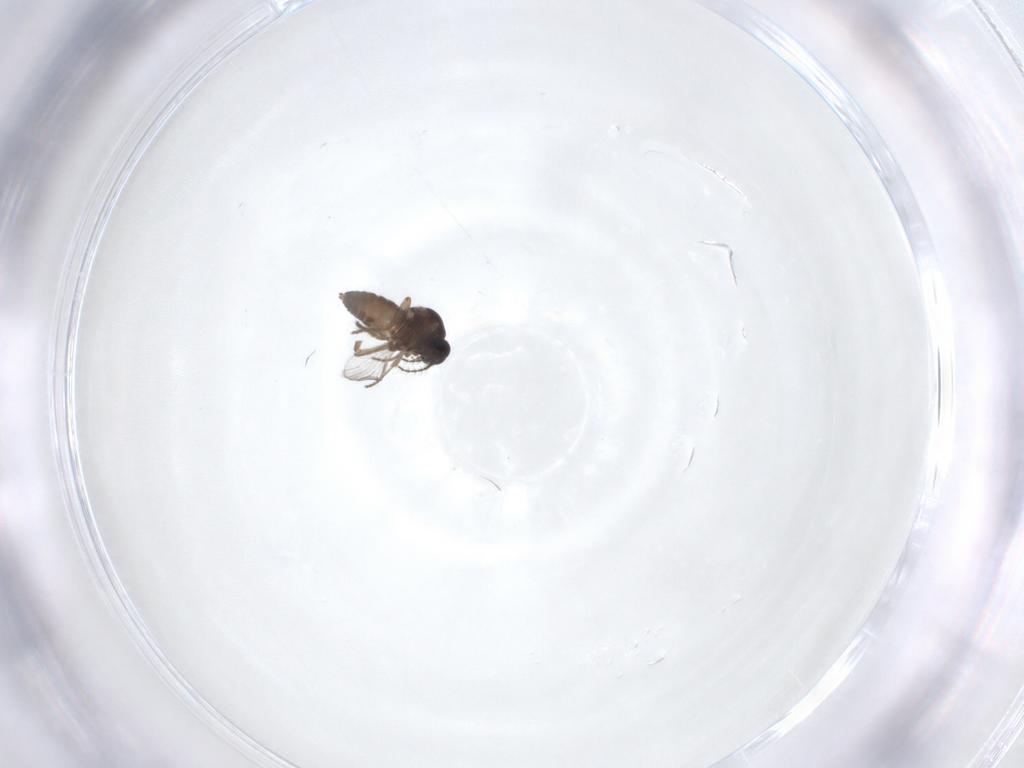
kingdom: Animalia
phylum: Arthropoda
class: Insecta
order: Diptera
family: Ceratopogonidae
